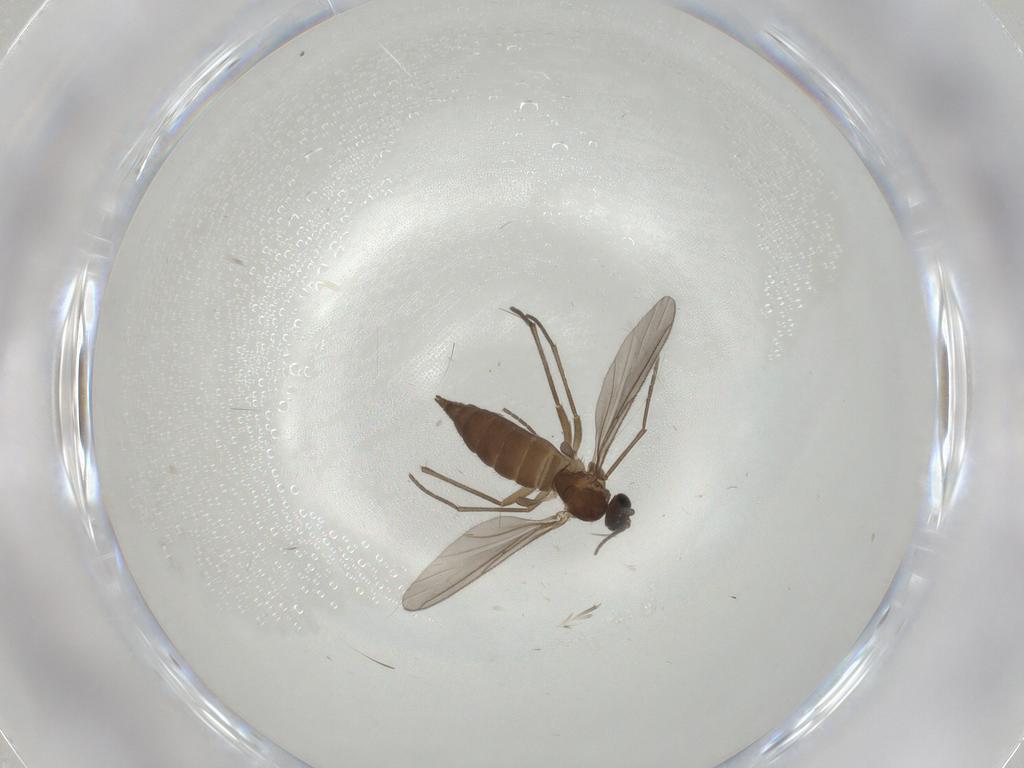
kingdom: Animalia
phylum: Arthropoda
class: Insecta
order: Diptera
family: Sciaridae
